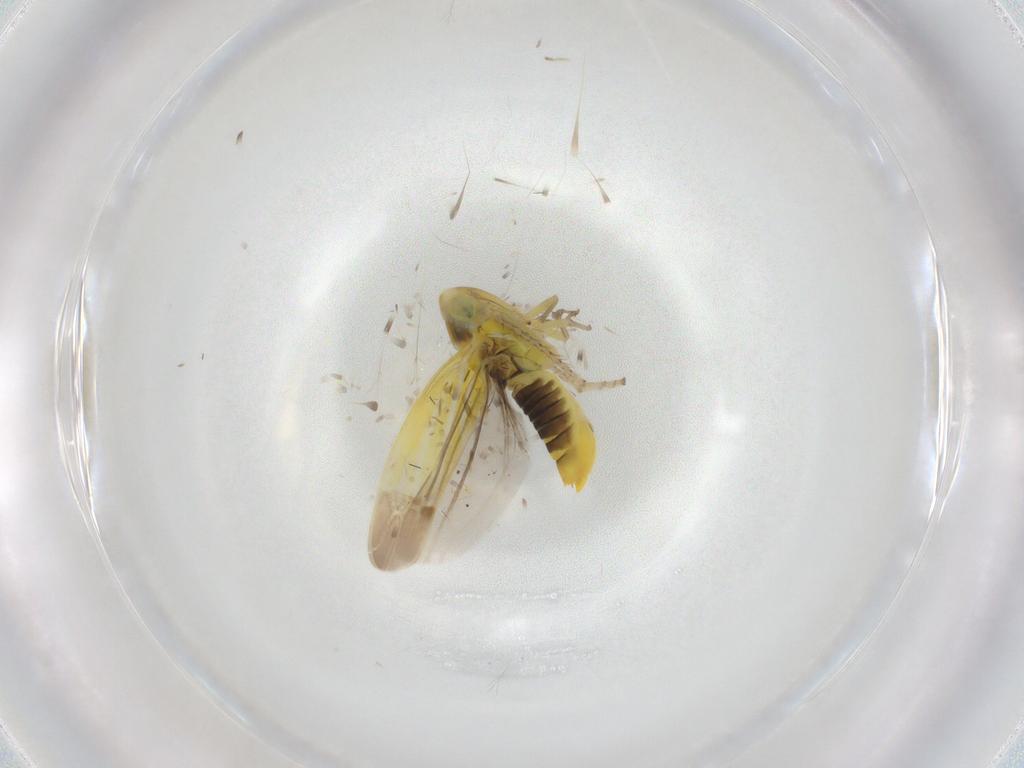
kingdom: Animalia
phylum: Arthropoda
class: Insecta
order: Hemiptera
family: Cicadellidae
